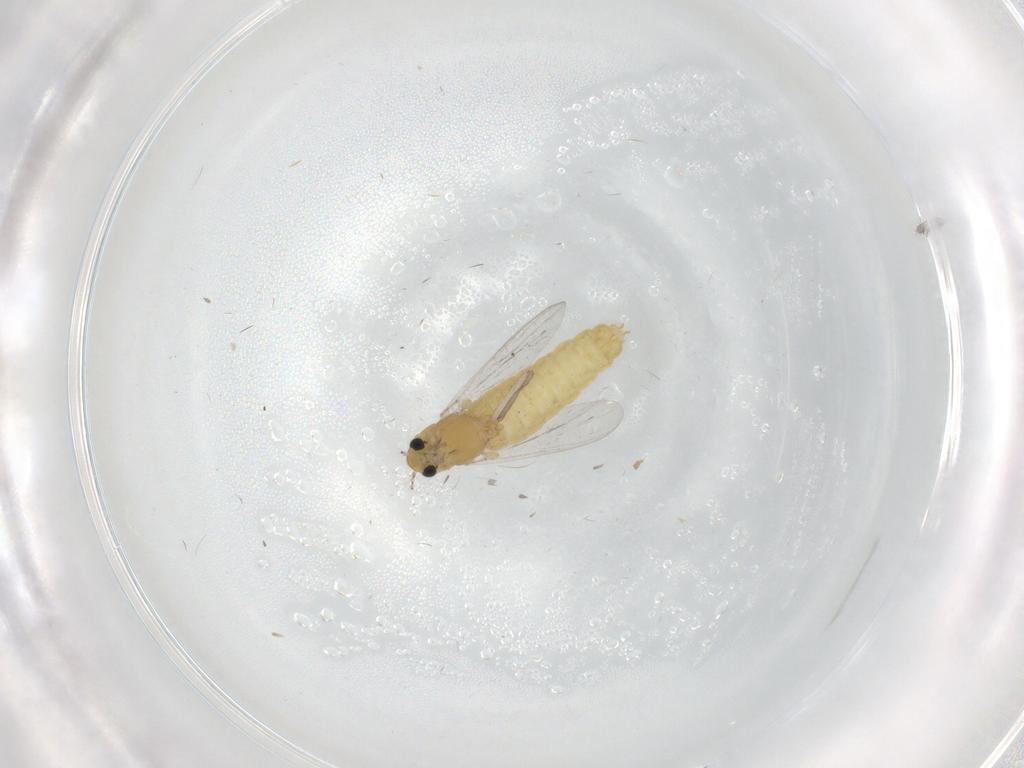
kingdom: Animalia
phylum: Arthropoda
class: Insecta
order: Diptera
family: Chironomidae
